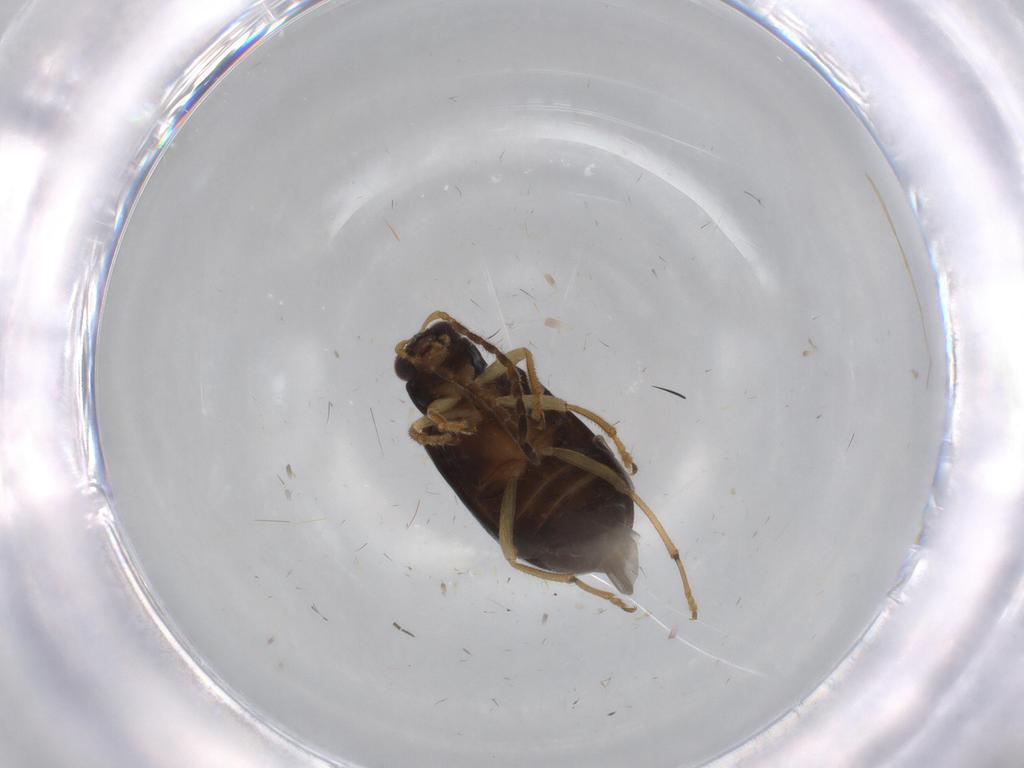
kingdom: Animalia
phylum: Arthropoda
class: Insecta
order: Coleoptera
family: Chrysomelidae
